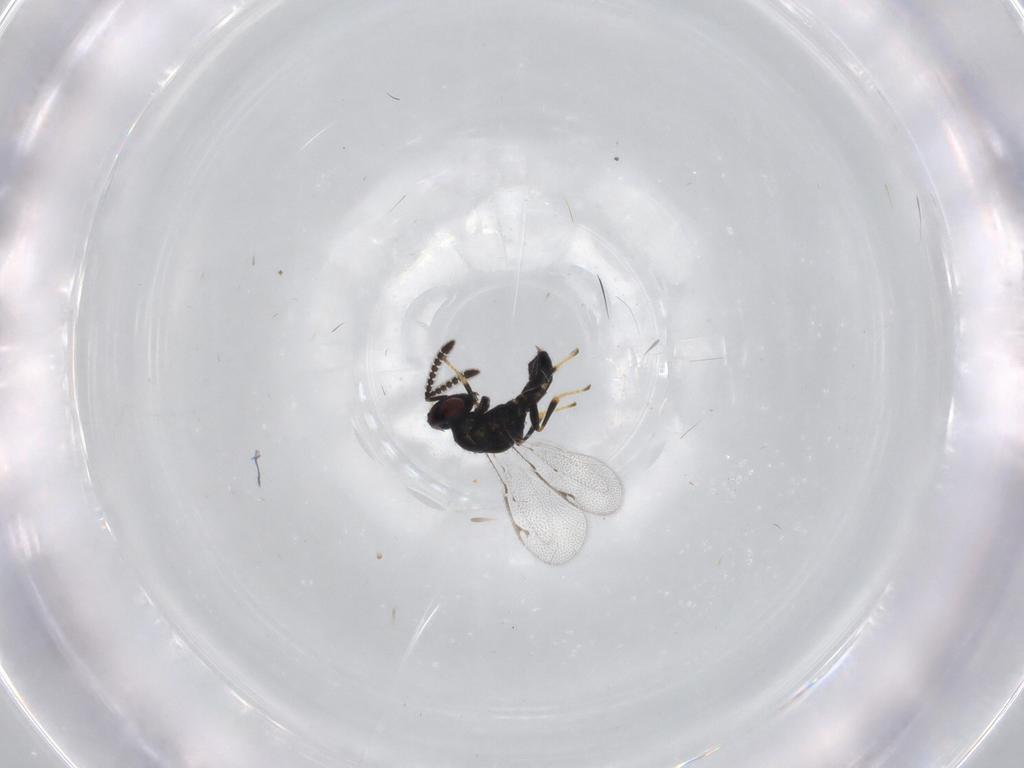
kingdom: Animalia
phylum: Arthropoda
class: Insecta
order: Hymenoptera
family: Pteromalidae
